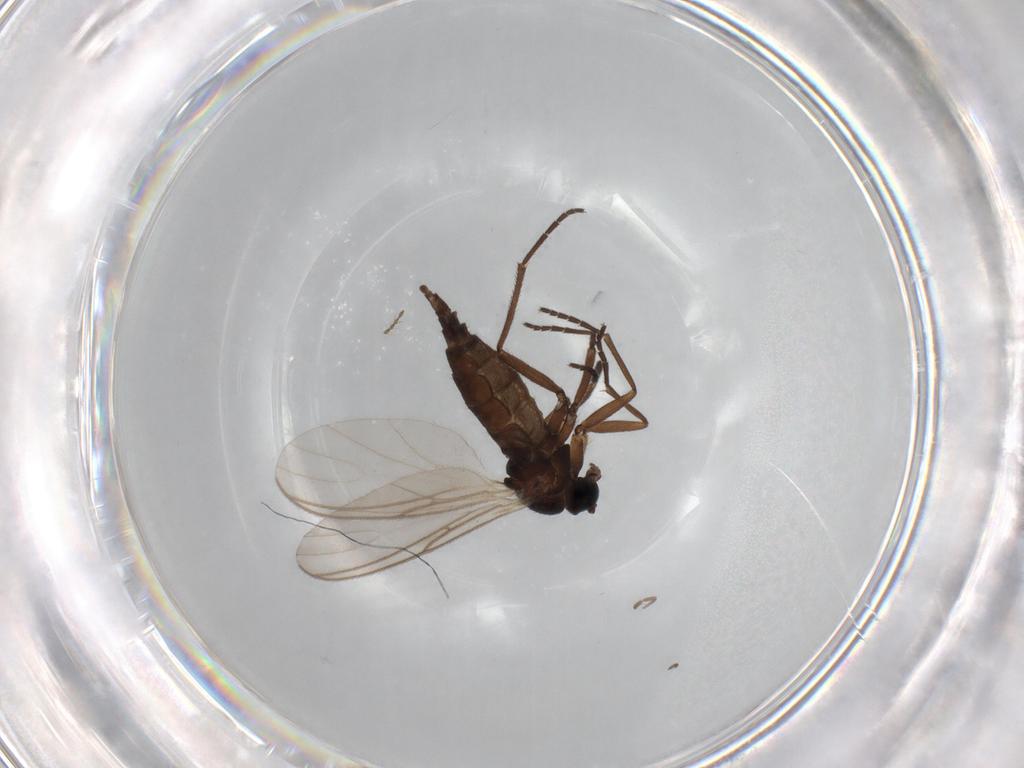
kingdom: Animalia
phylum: Arthropoda
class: Insecta
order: Diptera
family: Sciaridae
